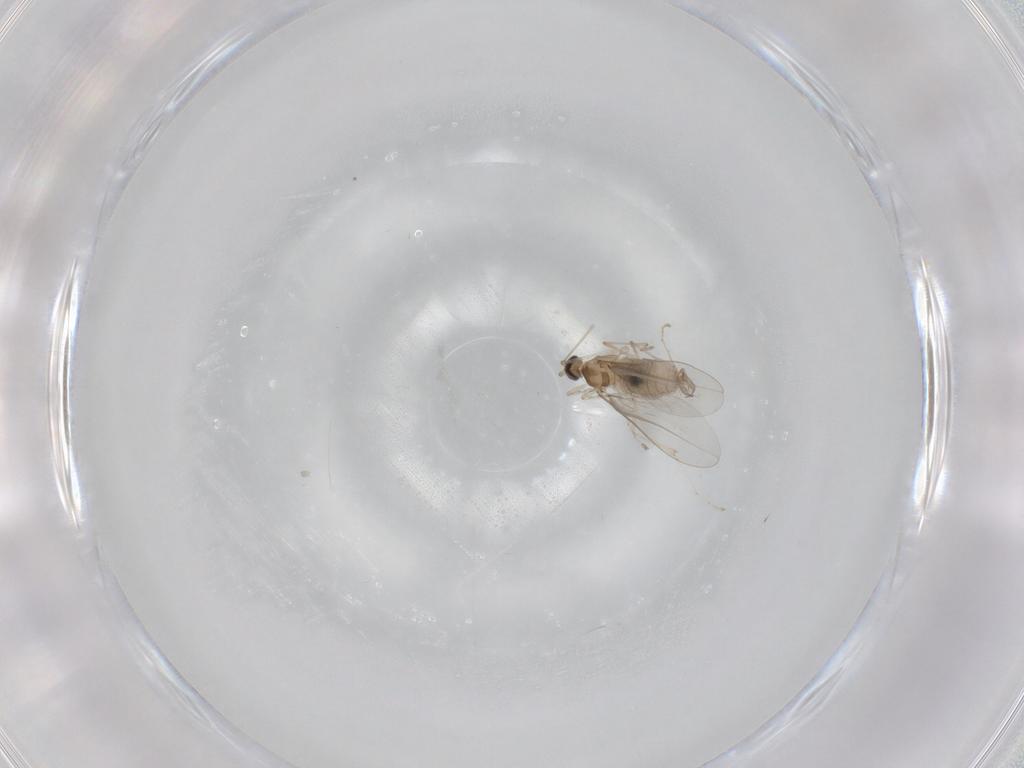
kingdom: Animalia
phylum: Arthropoda
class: Insecta
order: Diptera
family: Cecidomyiidae
